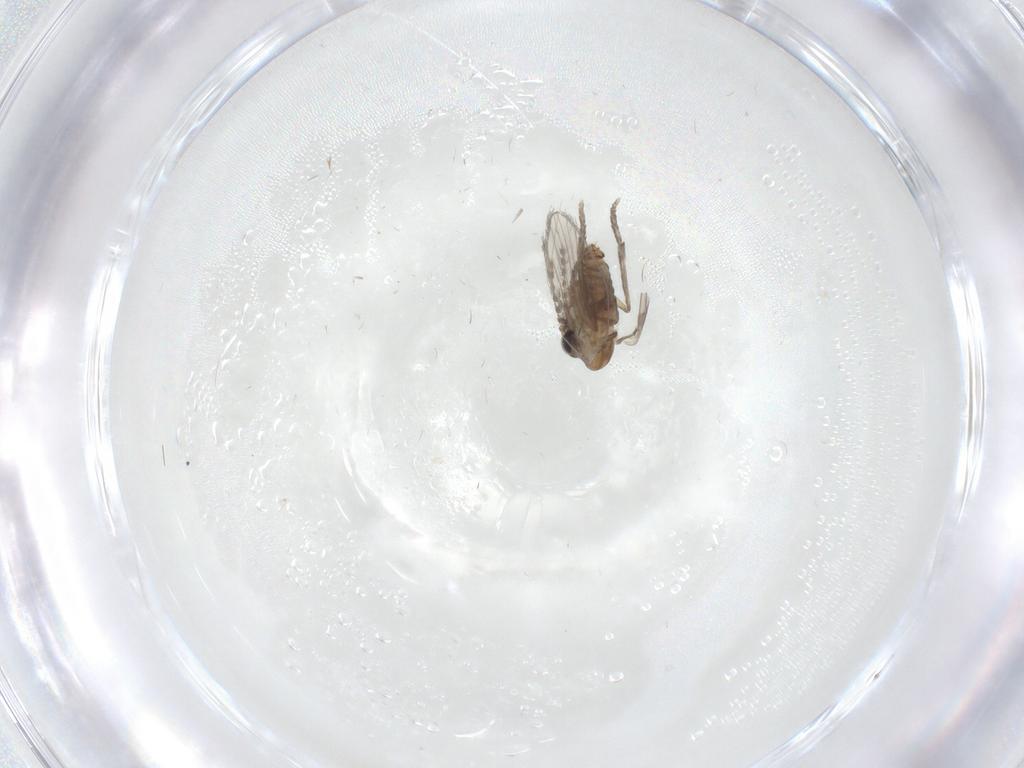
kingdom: Animalia
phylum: Arthropoda
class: Insecta
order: Diptera
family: Psychodidae
